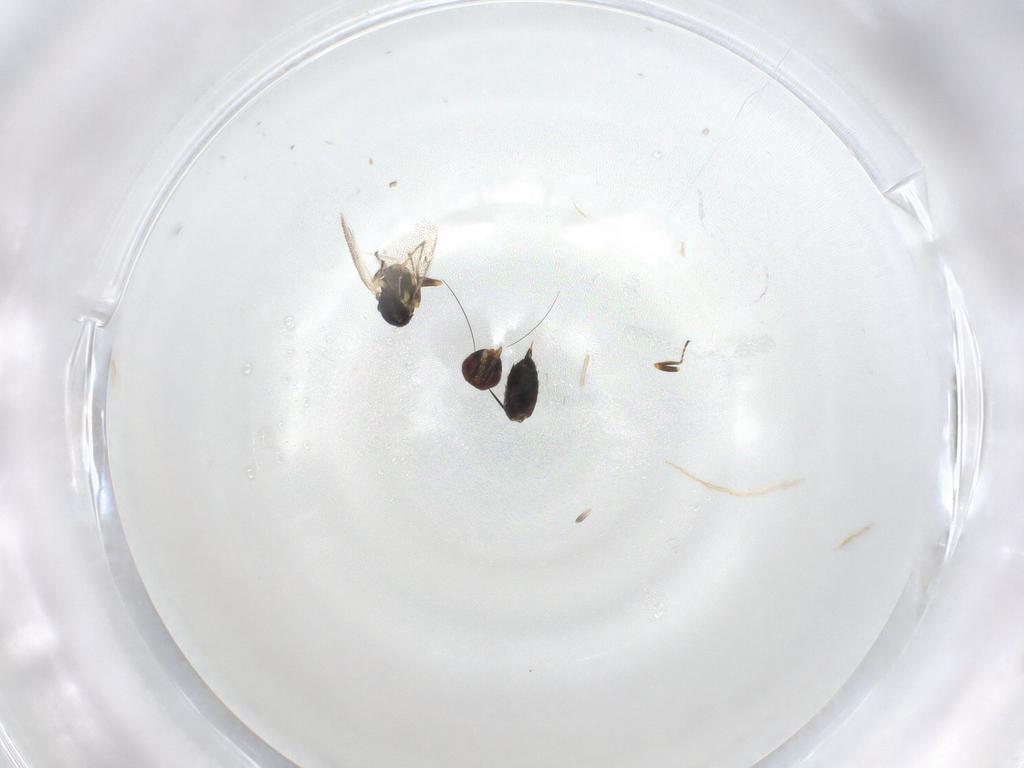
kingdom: Animalia
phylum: Arthropoda
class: Insecta
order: Hymenoptera
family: Eulophidae
